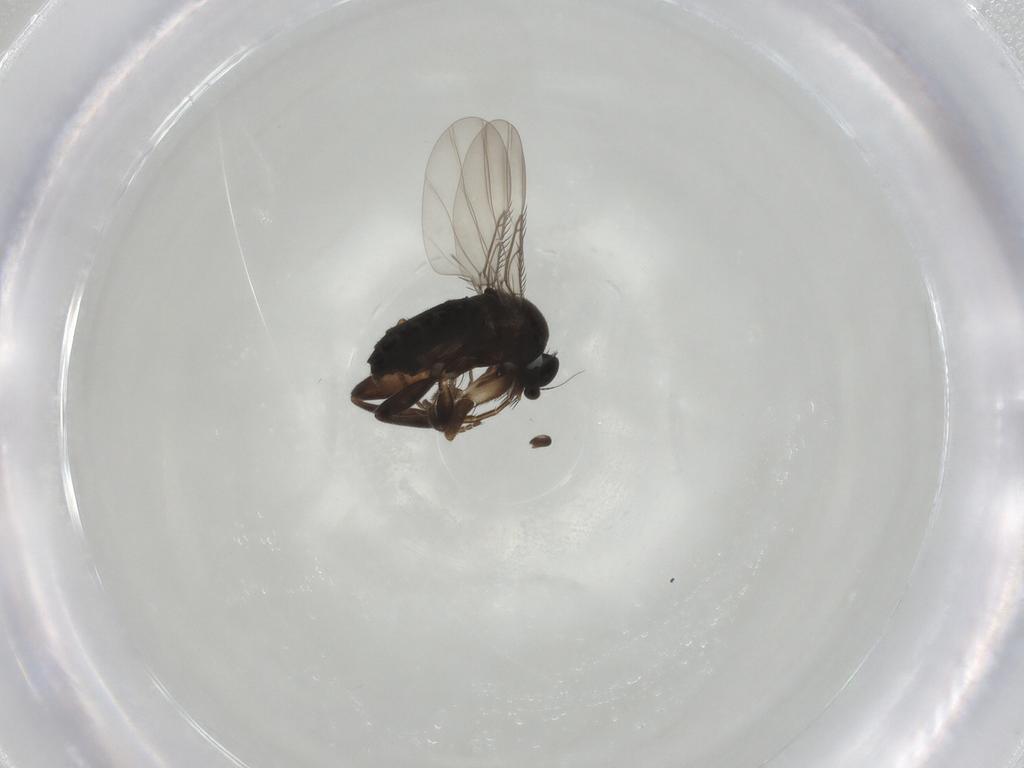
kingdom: Animalia
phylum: Arthropoda
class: Insecta
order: Diptera
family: Phoridae
